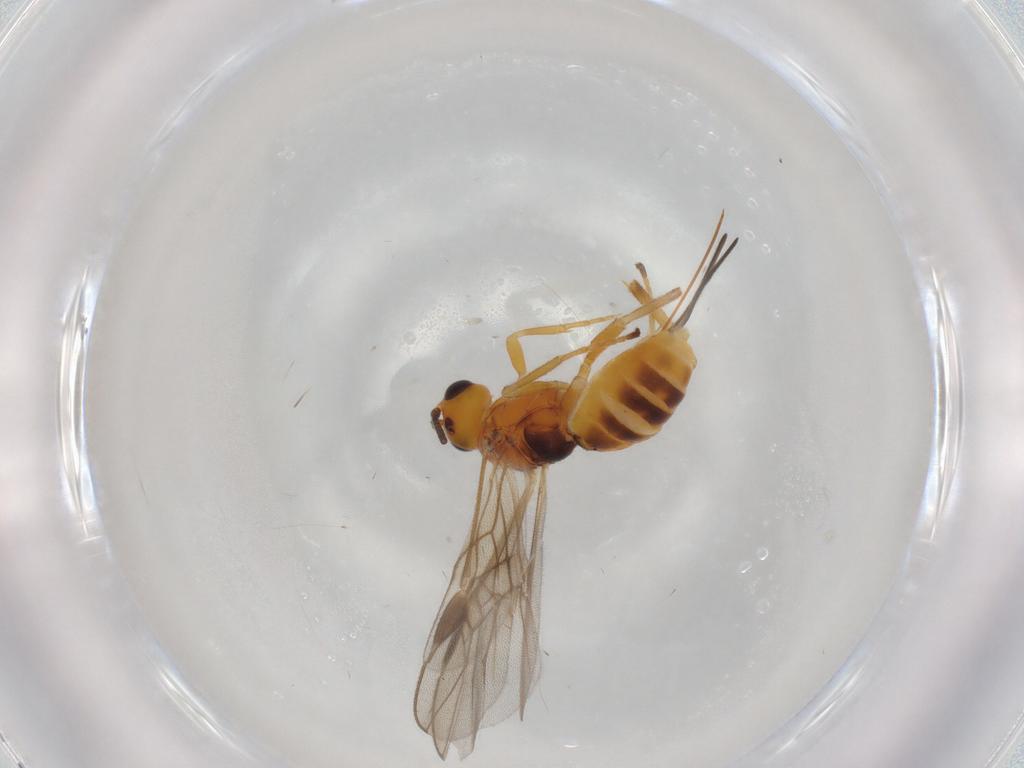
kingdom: Animalia
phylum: Arthropoda
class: Insecta
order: Hymenoptera
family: Braconidae
